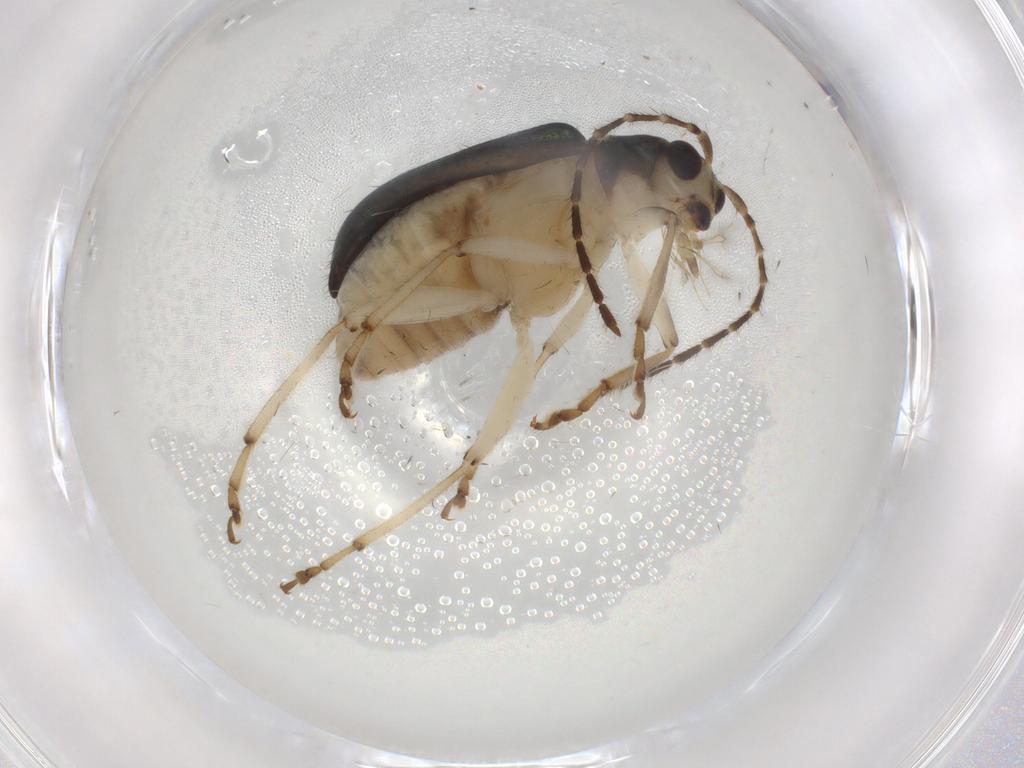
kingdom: Animalia
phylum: Arthropoda
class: Insecta
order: Coleoptera
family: Chrysomelidae
